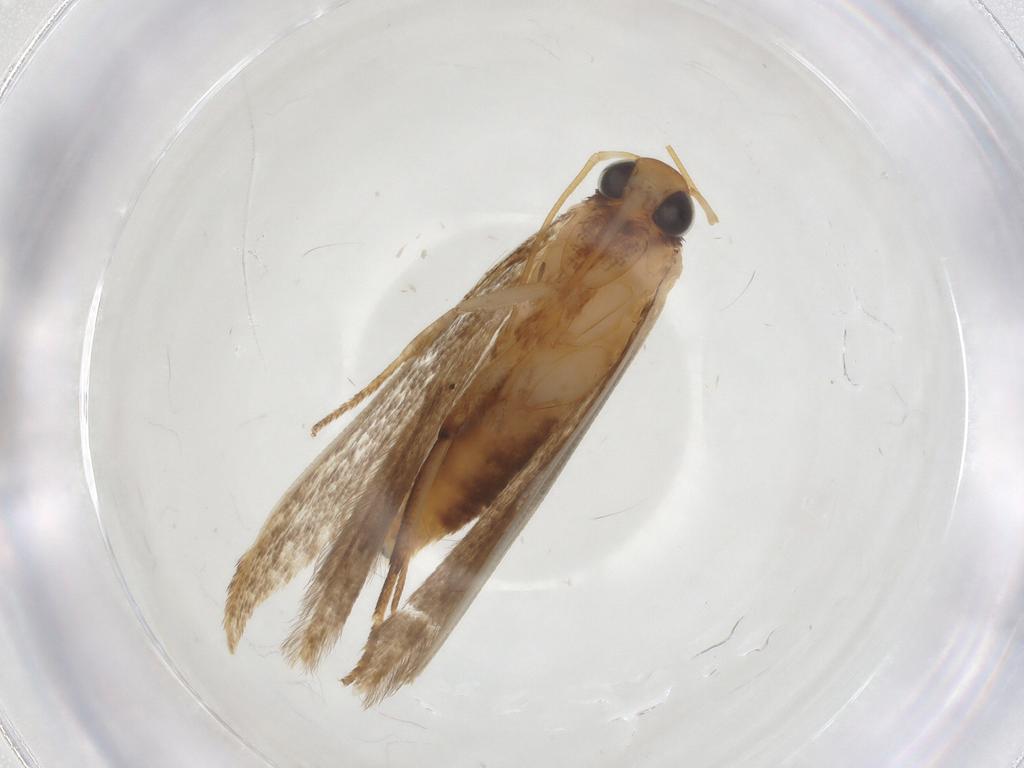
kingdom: Animalia
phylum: Arthropoda
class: Insecta
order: Lepidoptera
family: Gelechiidae
